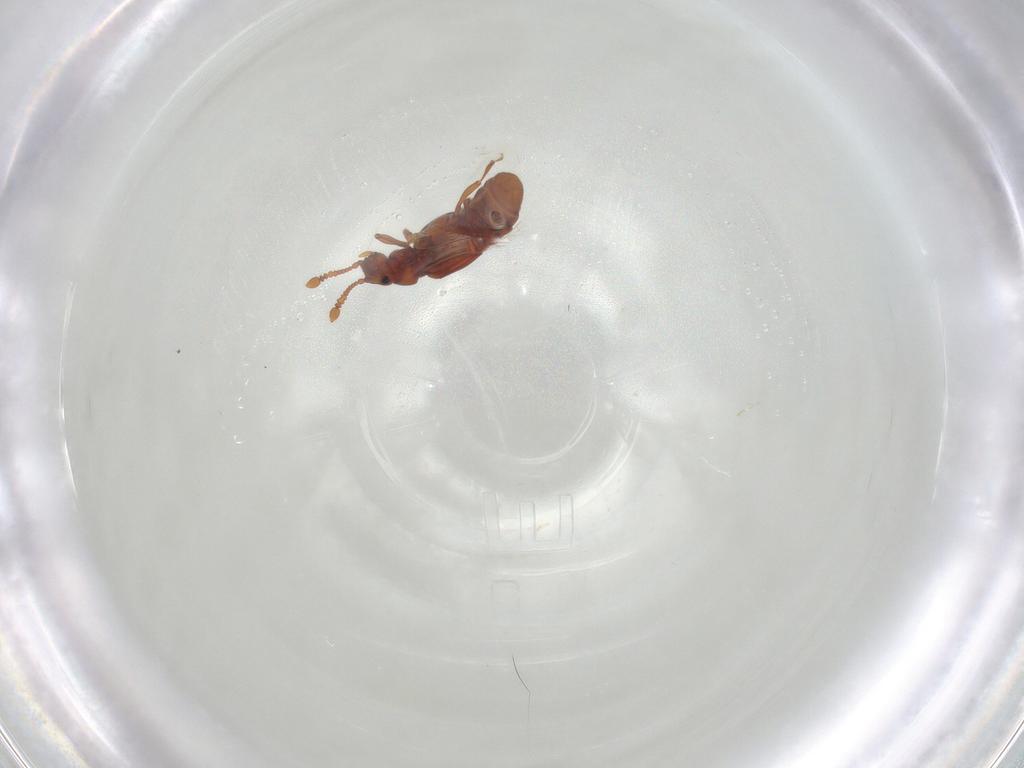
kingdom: Animalia
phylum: Arthropoda
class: Insecta
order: Coleoptera
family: Staphylinidae
